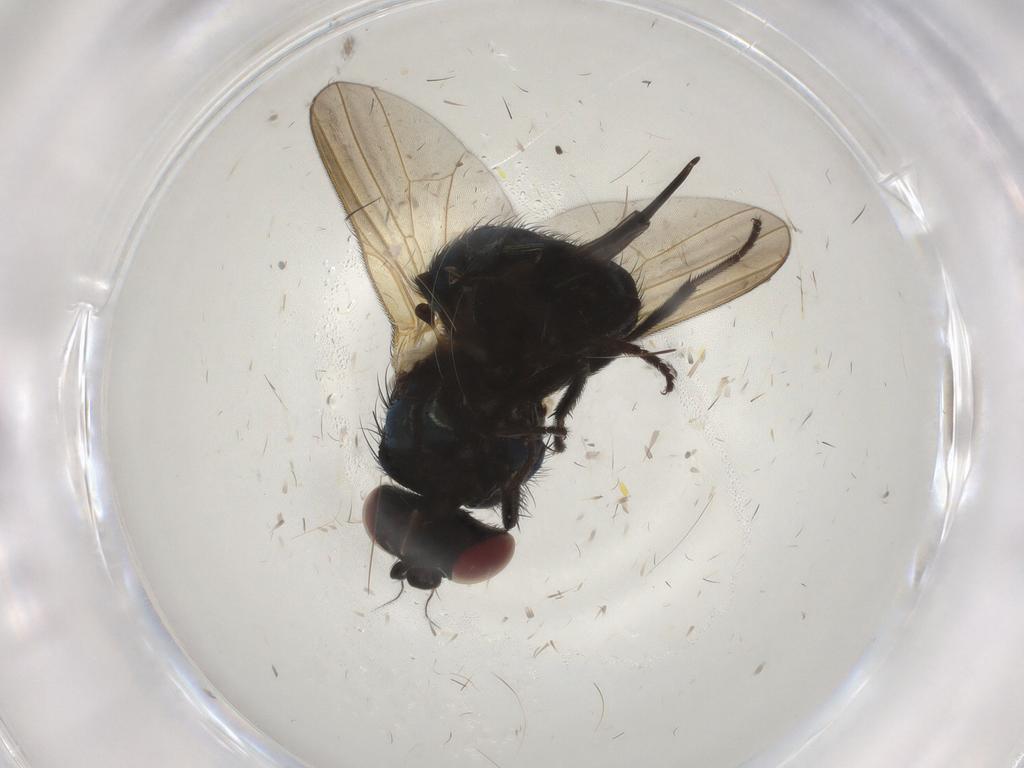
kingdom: Animalia
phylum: Arthropoda
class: Insecta
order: Diptera
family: Lonchaeidae
